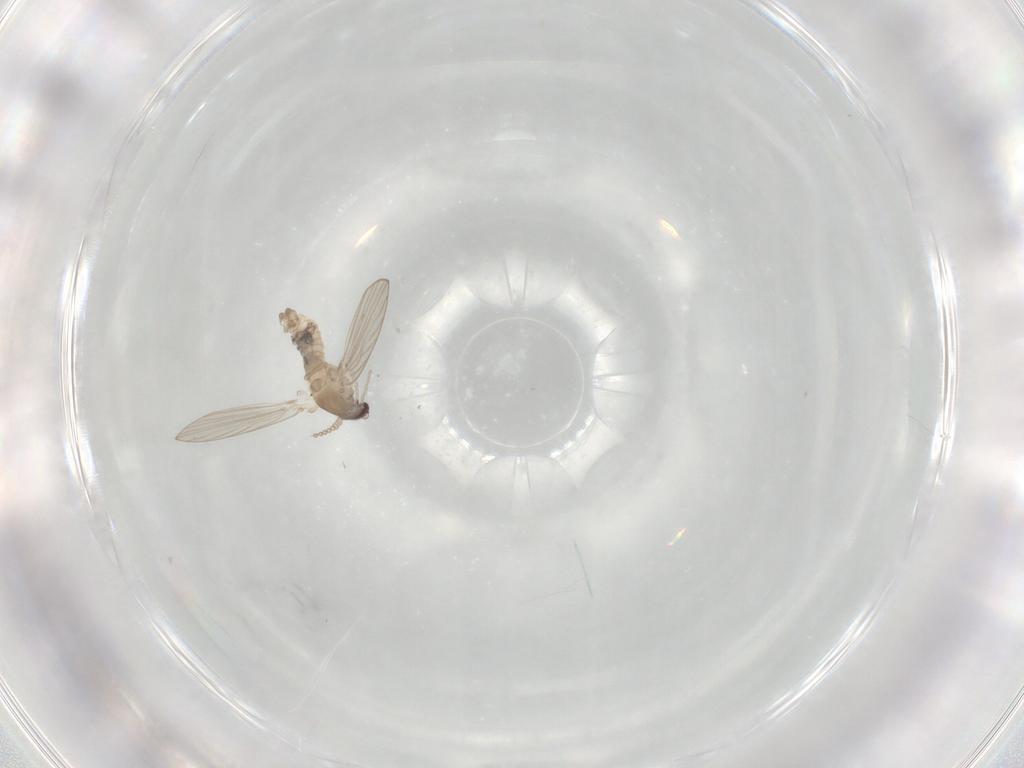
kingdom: Animalia
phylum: Arthropoda
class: Insecta
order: Diptera
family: Psychodidae
